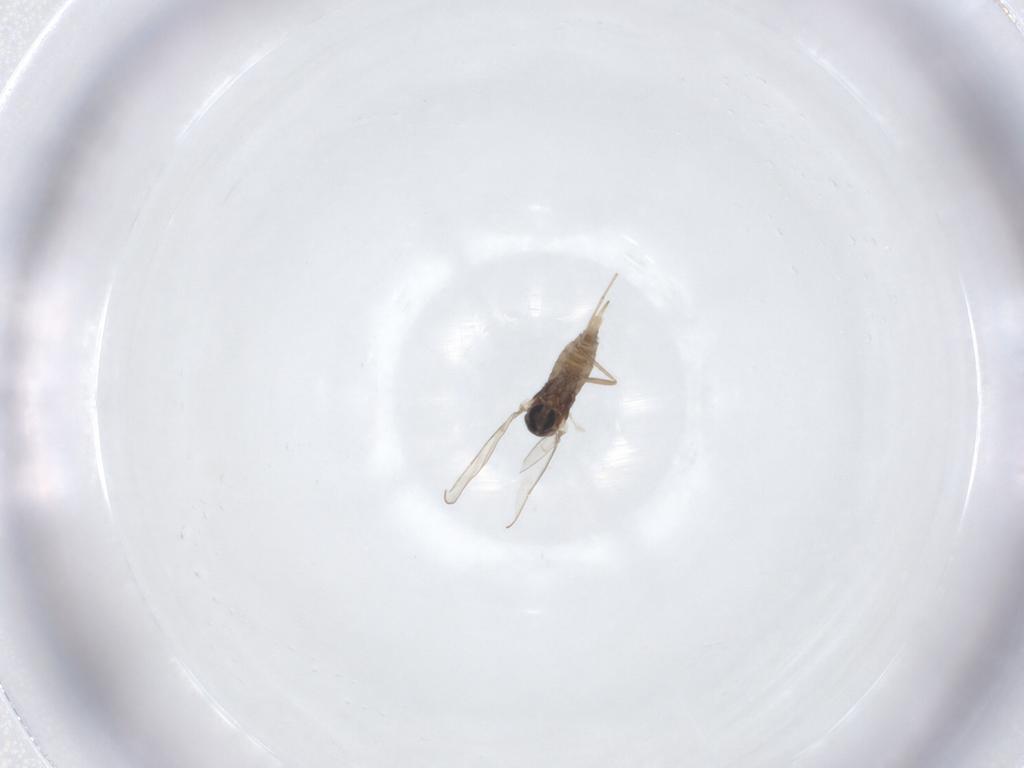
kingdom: Animalia
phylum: Arthropoda
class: Insecta
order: Diptera
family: Cecidomyiidae
